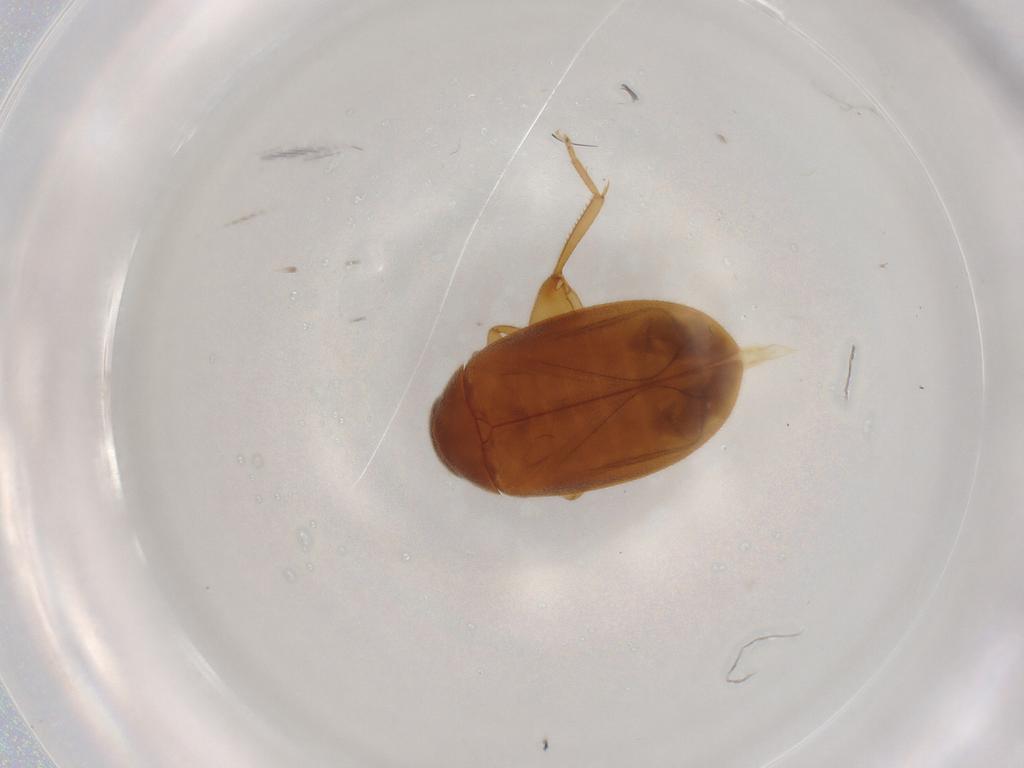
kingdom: Animalia
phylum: Arthropoda
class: Insecta
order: Coleoptera
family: Scirtidae
